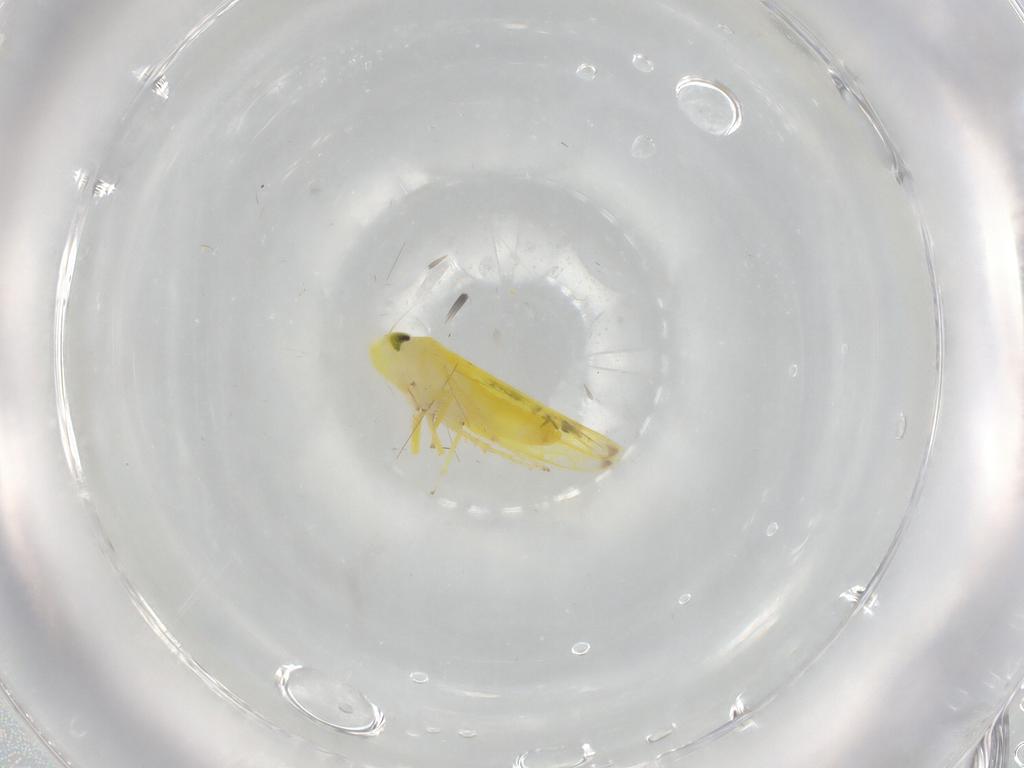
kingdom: Animalia
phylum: Arthropoda
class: Insecta
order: Hemiptera
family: Cicadellidae
